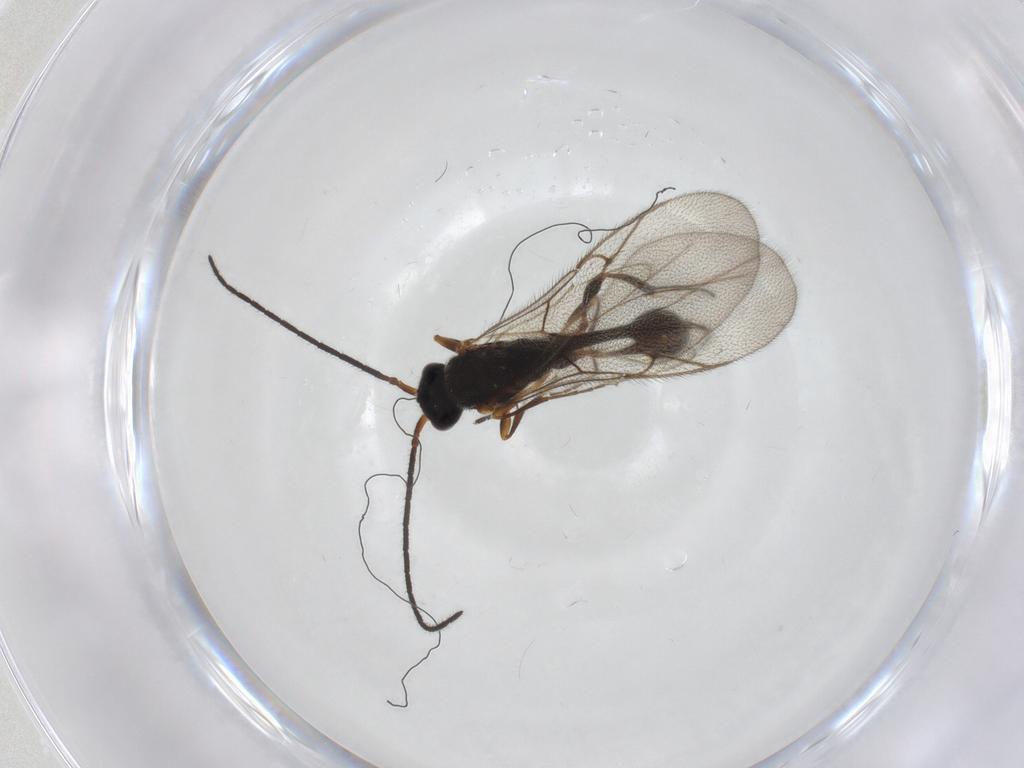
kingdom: Animalia
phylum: Arthropoda
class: Insecta
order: Hymenoptera
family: Diapriidae
